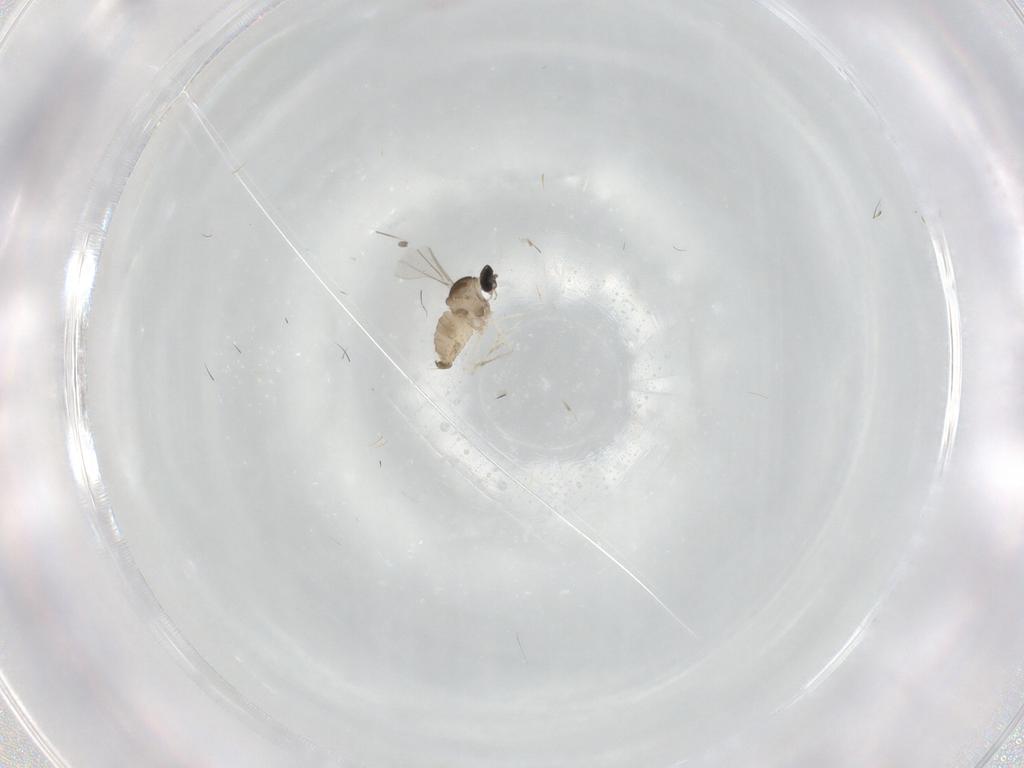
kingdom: Animalia
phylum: Arthropoda
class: Insecta
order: Diptera
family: Cecidomyiidae
